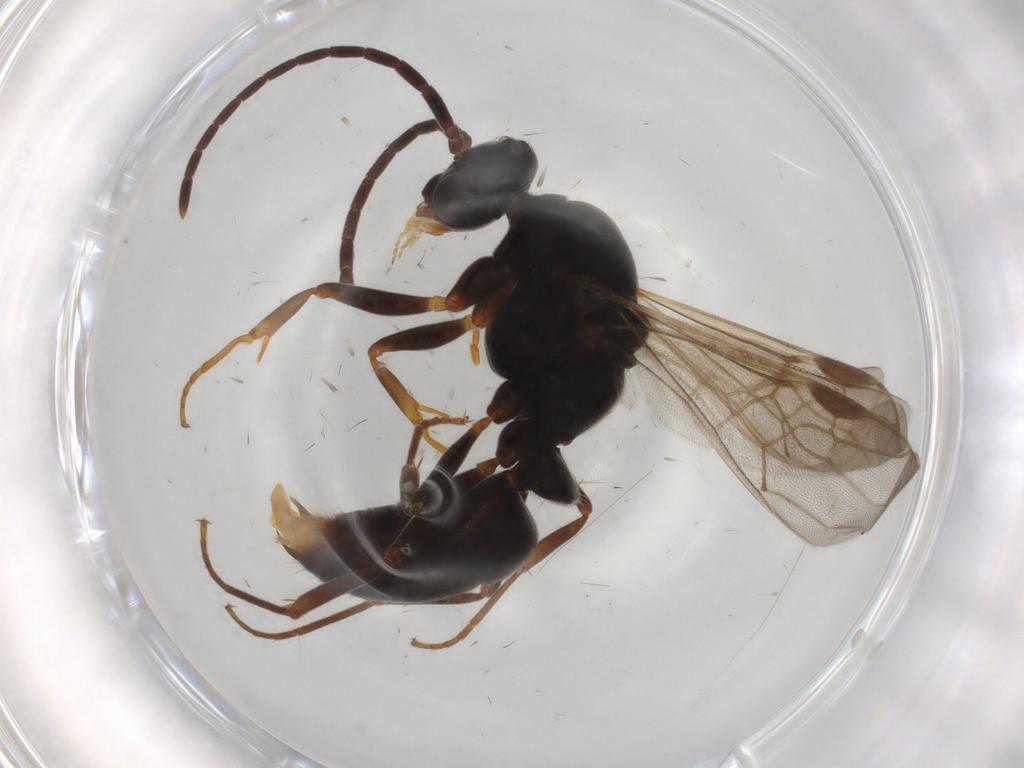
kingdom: Animalia
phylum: Arthropoda
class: Insecta
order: Hymenoptera
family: Formicidae
